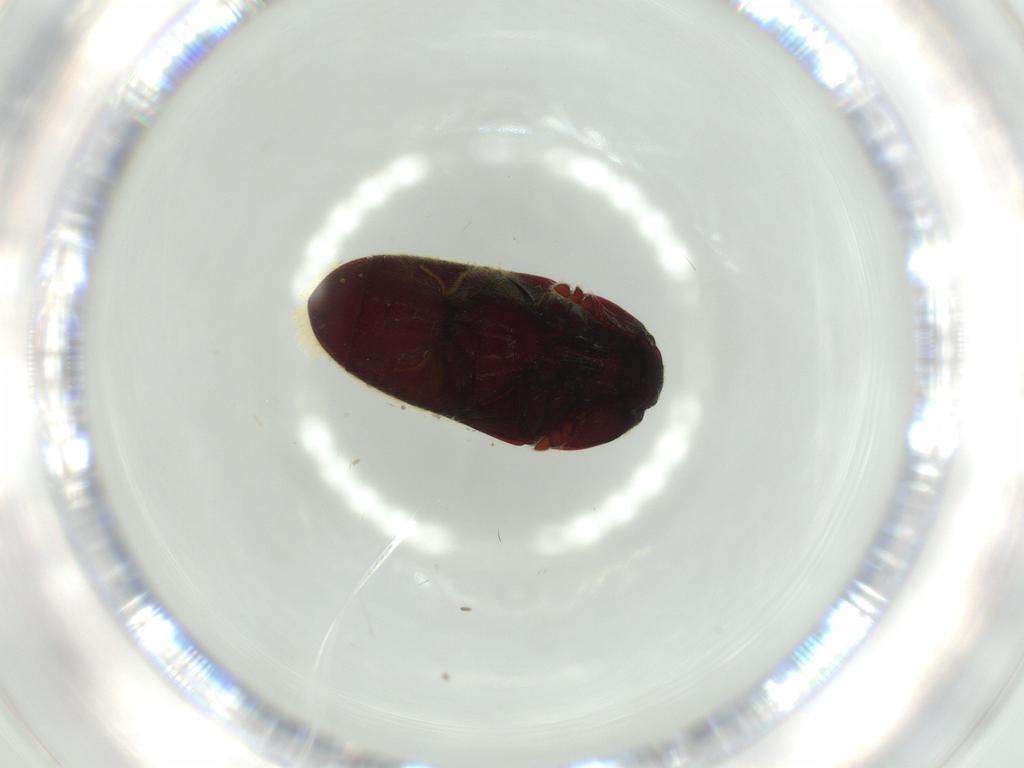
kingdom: Animalia
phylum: Arthropoda
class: Insecta
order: Coleoptera
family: Throscidae
